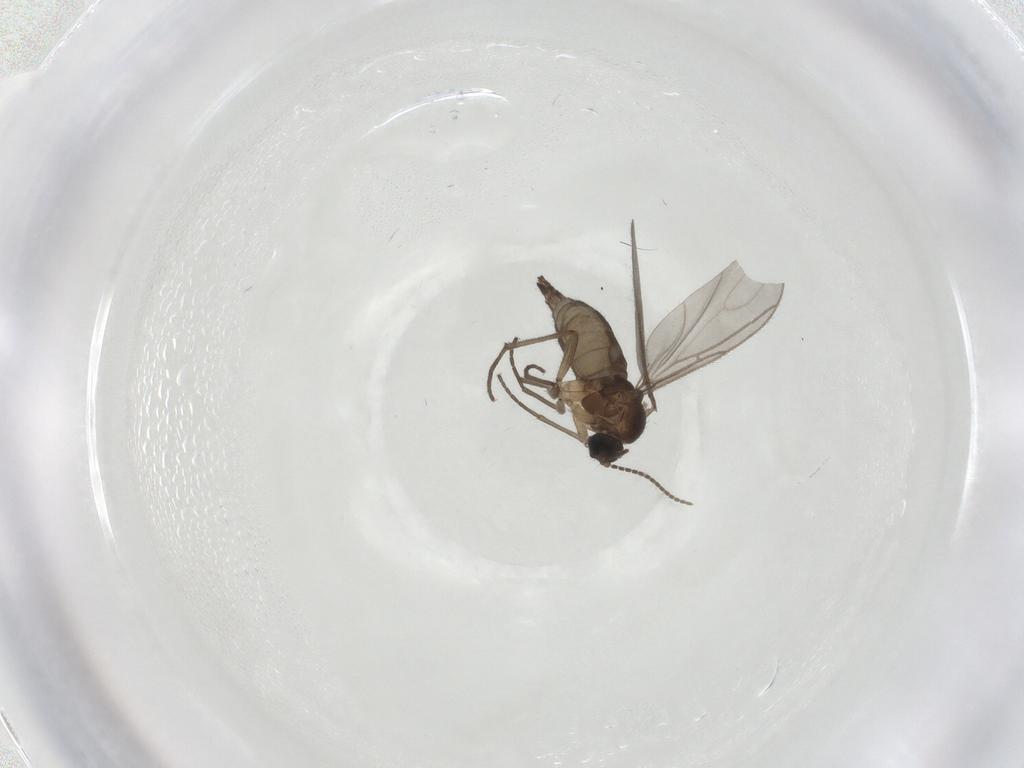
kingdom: Animalia
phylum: Arthropoda
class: Insecta
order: Diptera
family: Sciaridae
